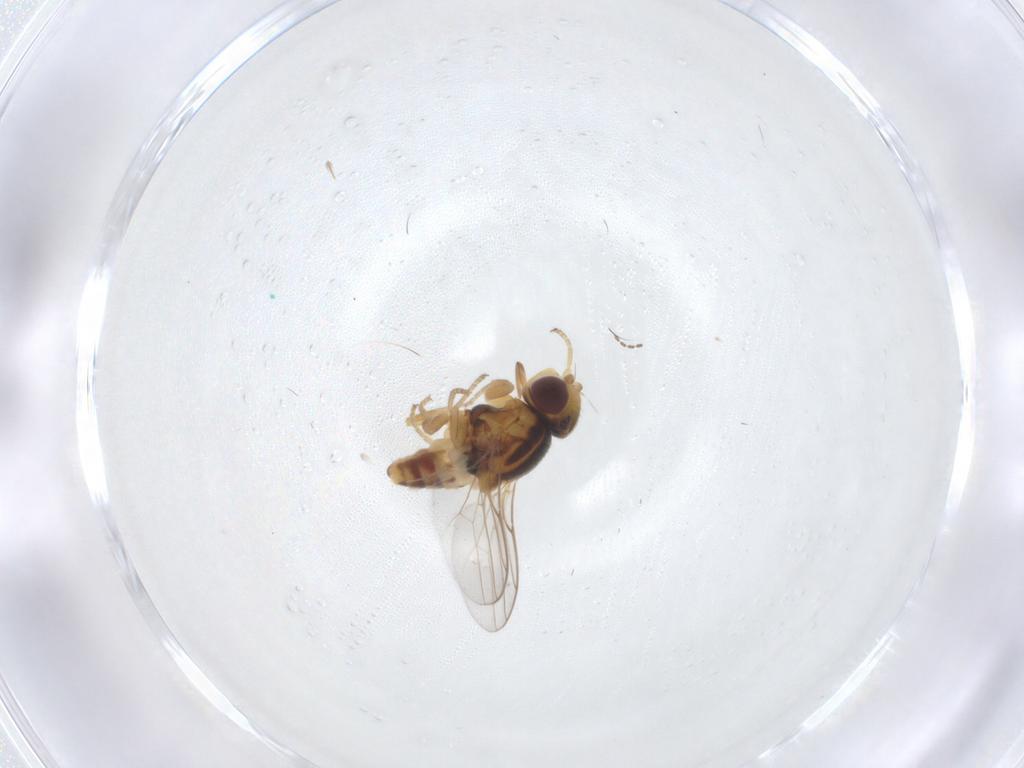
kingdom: Animalia
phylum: Arthropoda
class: Insecta
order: Diptera
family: Chloropidae
